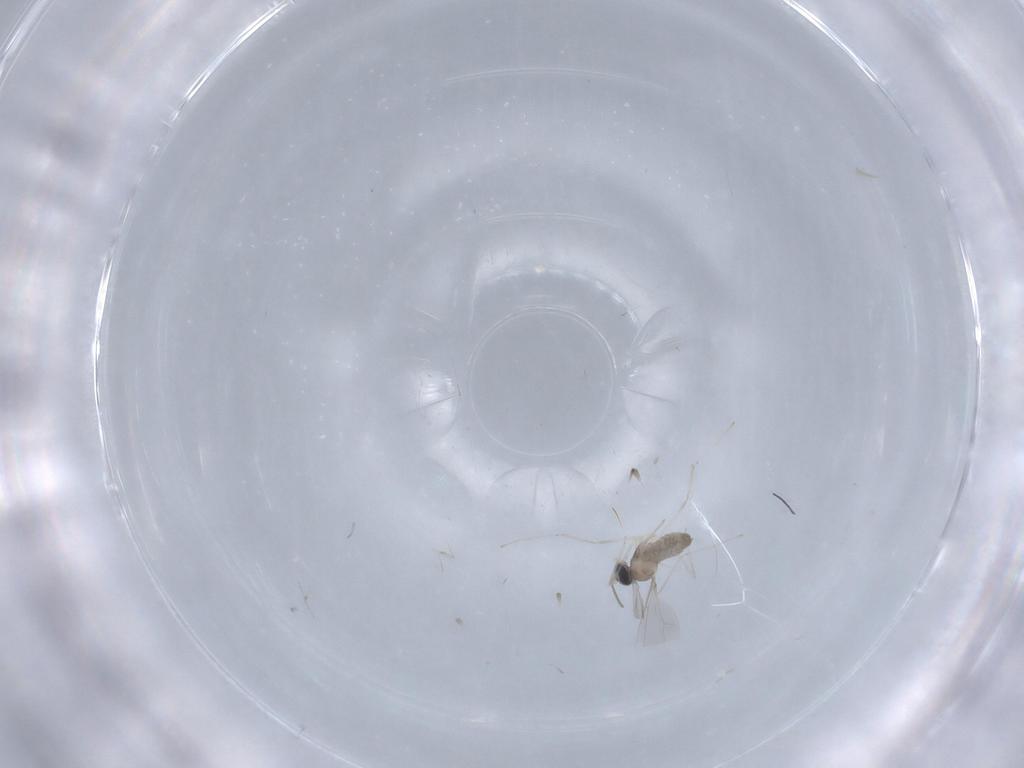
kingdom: Animalia
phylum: Arthropoda
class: Insecta
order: Diptera
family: Cecidomyiidae
